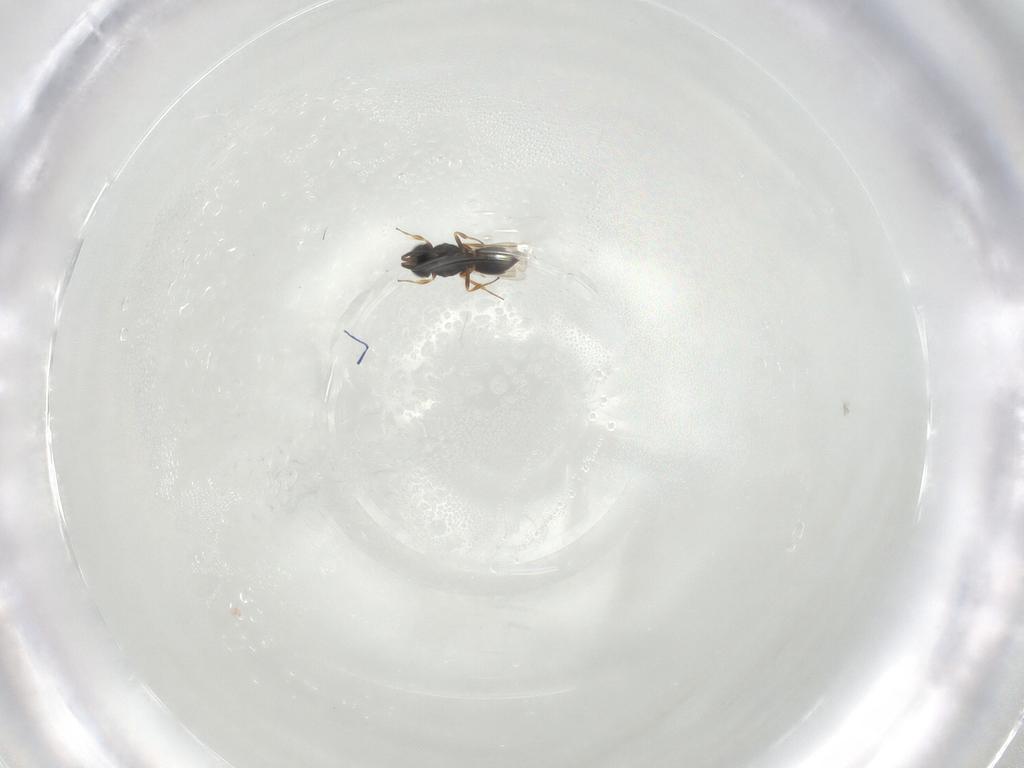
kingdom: Animalia
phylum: Arthropoda
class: Insecta
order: Hymenoptera
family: Scelionidae
